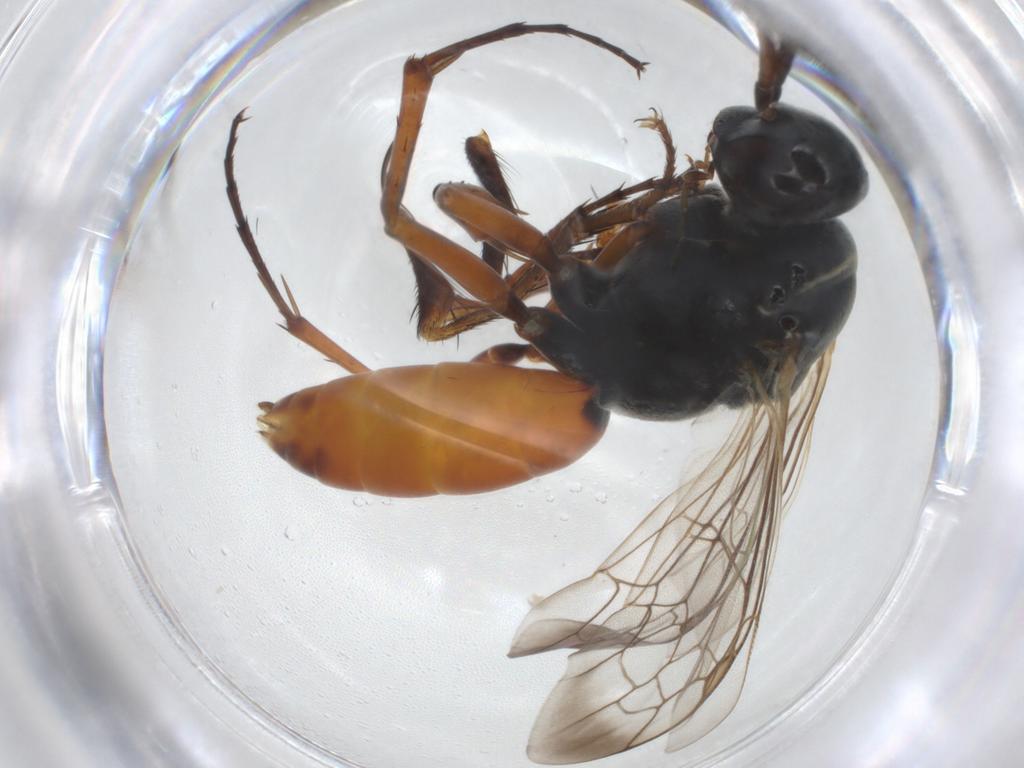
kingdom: Animalia
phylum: Arthropoda
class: Insecta
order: Hymenoptera
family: Pompilidae
